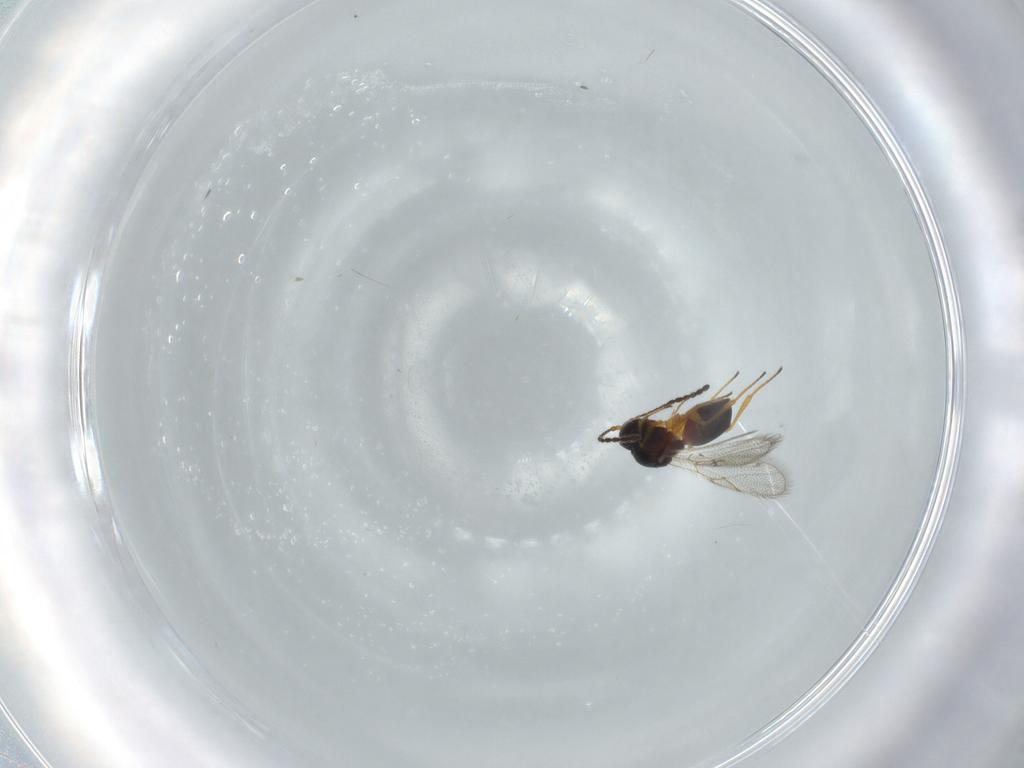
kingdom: Animalia
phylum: Arthropoda
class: Insecta
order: Hymenoptera
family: Figitidae
